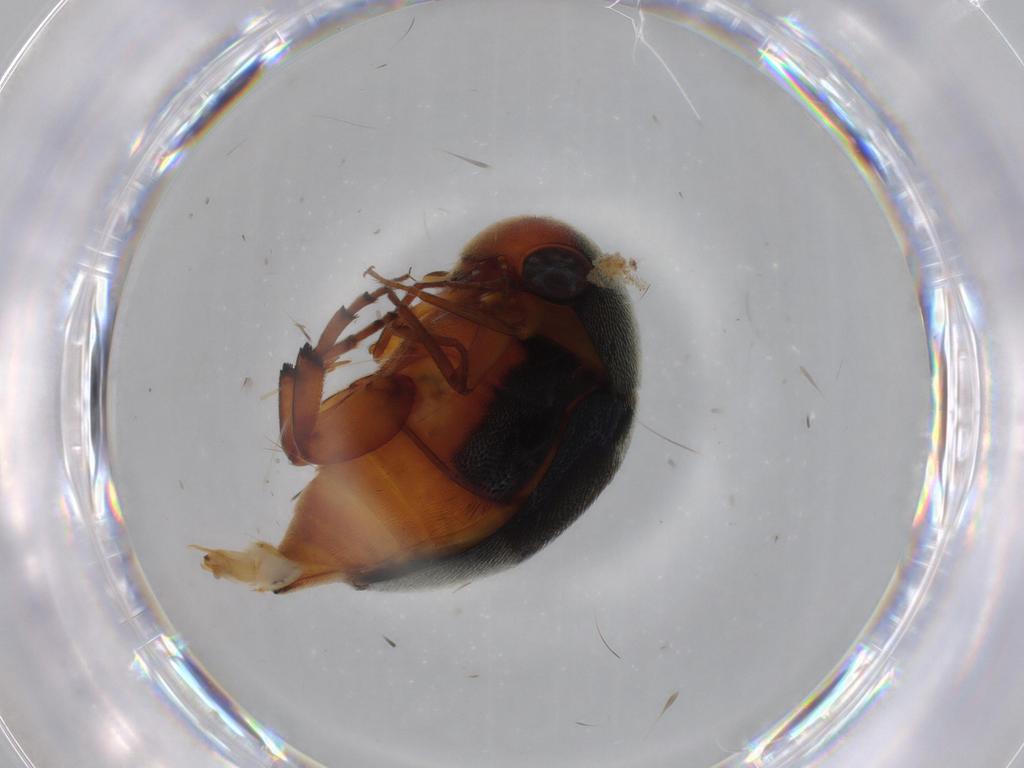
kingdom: Animalia
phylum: Arthropoda
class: Insecta
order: Coleoptera
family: Mordellidae
